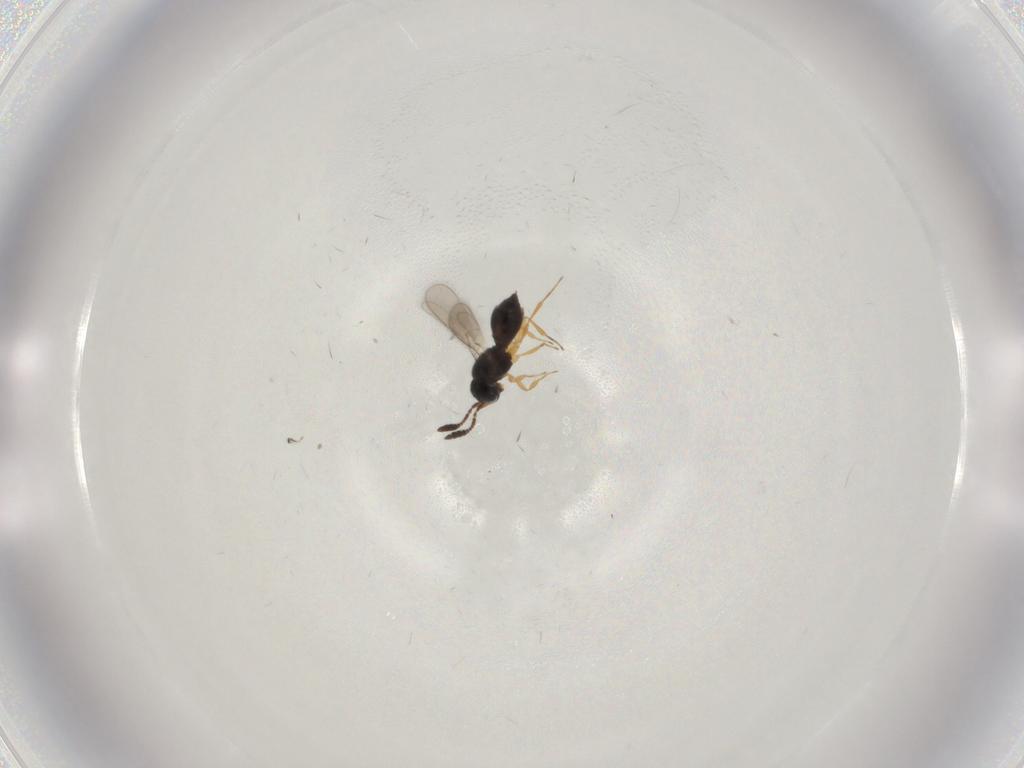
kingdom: Animalia
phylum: Arthropoda
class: Insecta
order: Hymenoptera
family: Scelionidae
